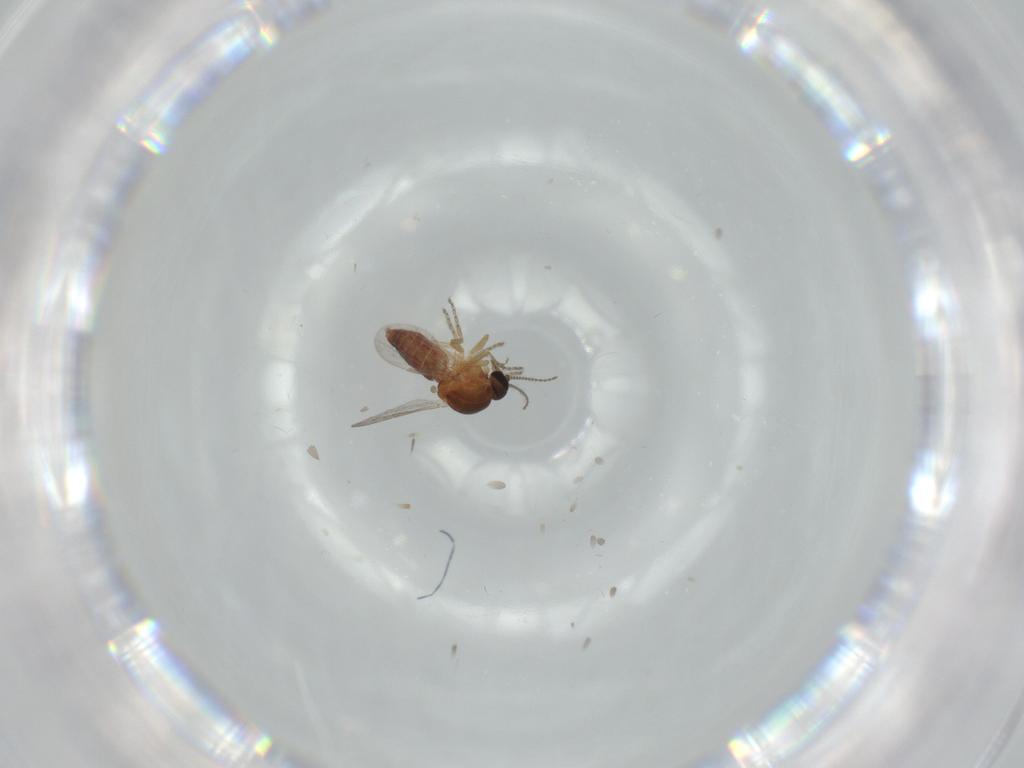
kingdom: Animalia
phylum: Arthropoda
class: Insecta
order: Diptera
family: Ceratopogonidae
